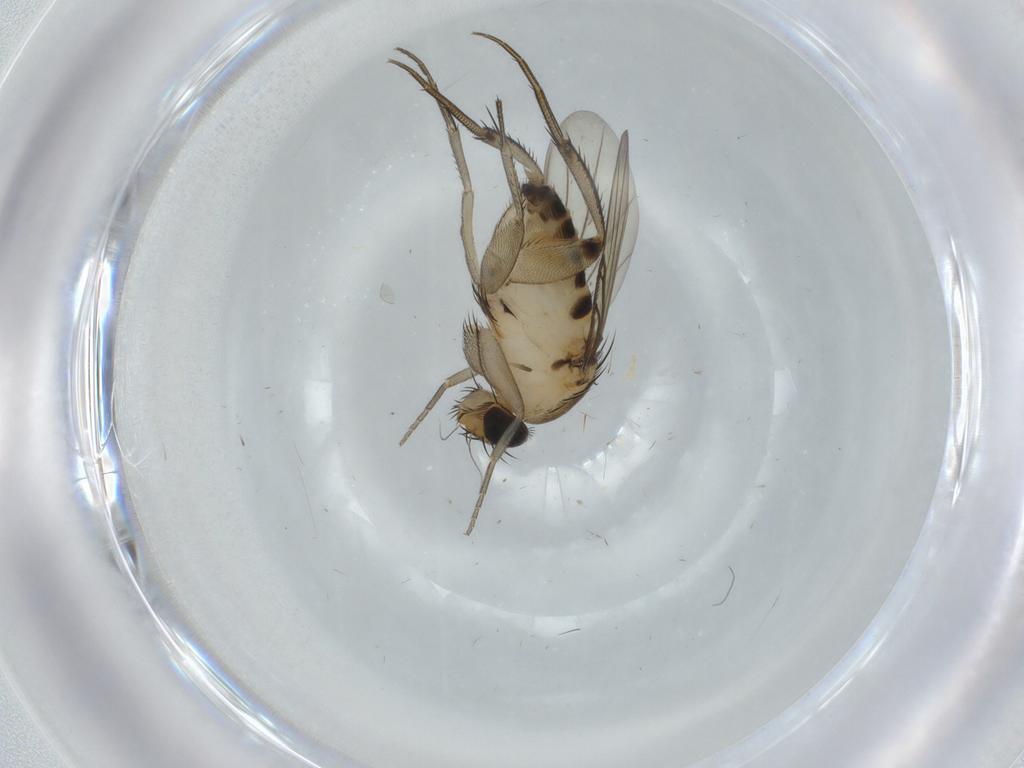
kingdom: Animalia
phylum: Arthropoda
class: Insecta
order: Diptera
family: Phoridae
